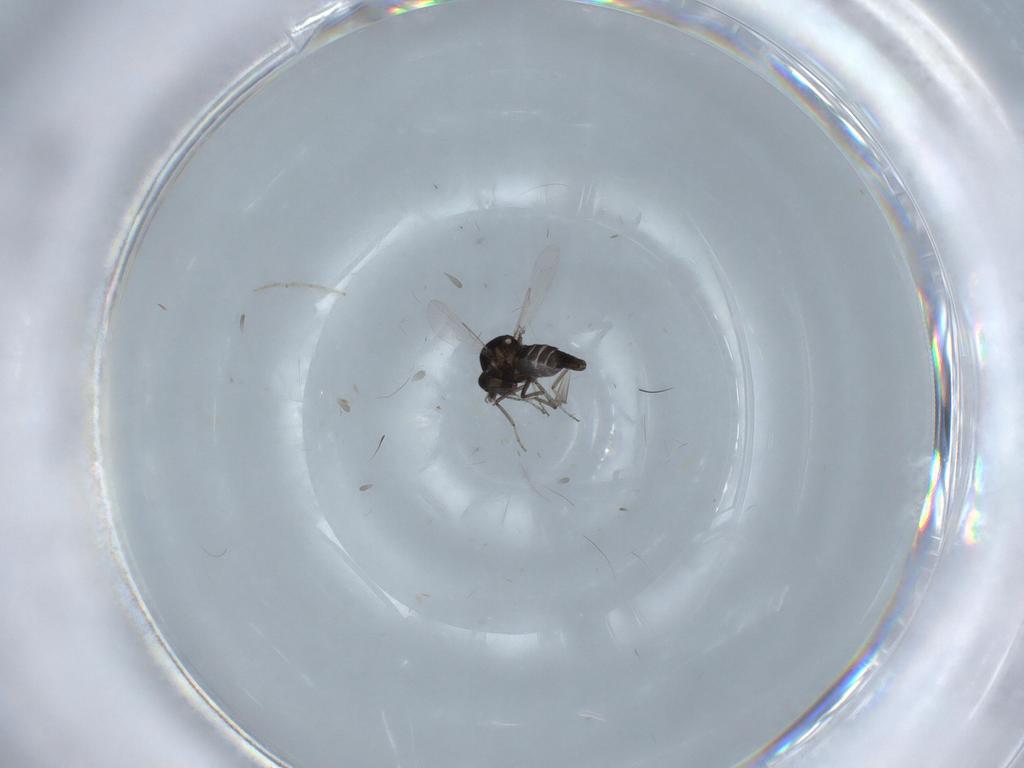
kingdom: Animalia
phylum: Arthropoda
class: Insecta
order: Diptera
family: Ceratopogonidae
